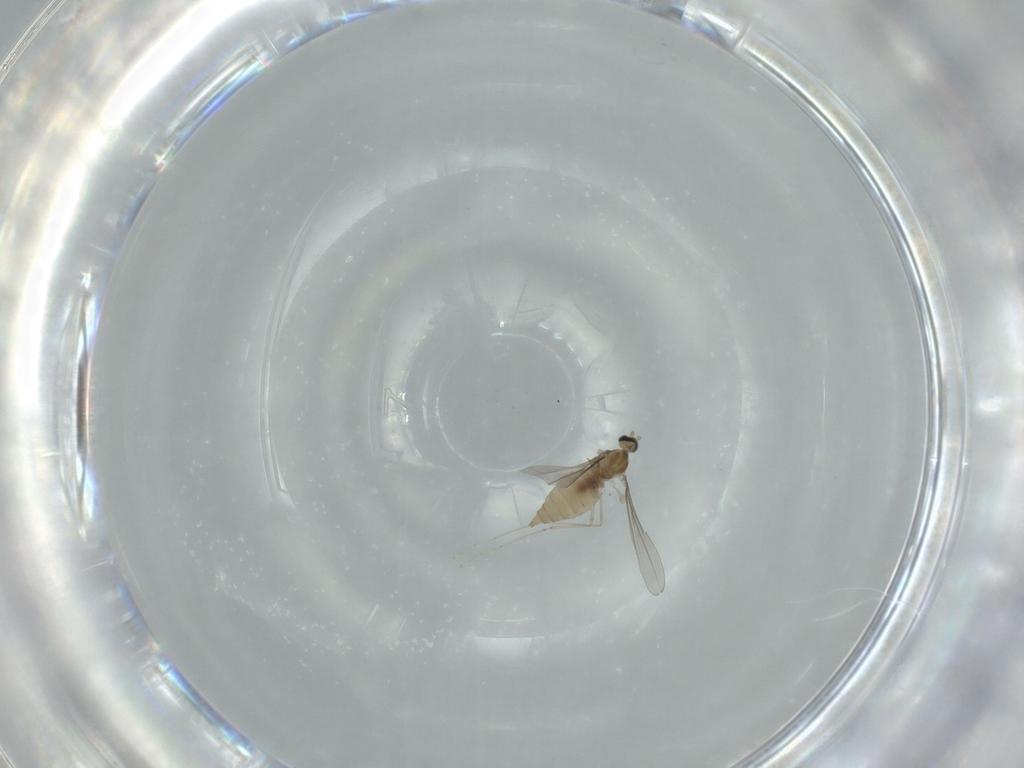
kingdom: Animalia
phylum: Arthropoda
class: Insecta
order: Diptera
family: Cecidomyiidae
